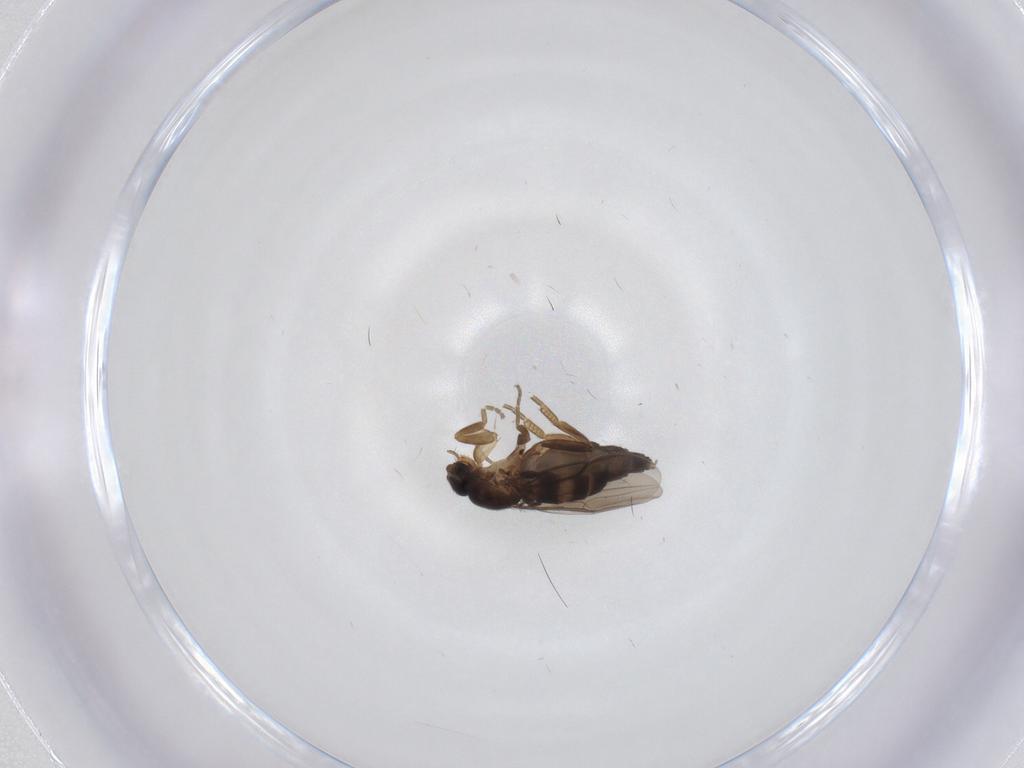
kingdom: Animalia
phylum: Arthropoda
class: Insecta
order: Diptera
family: Phoridae
